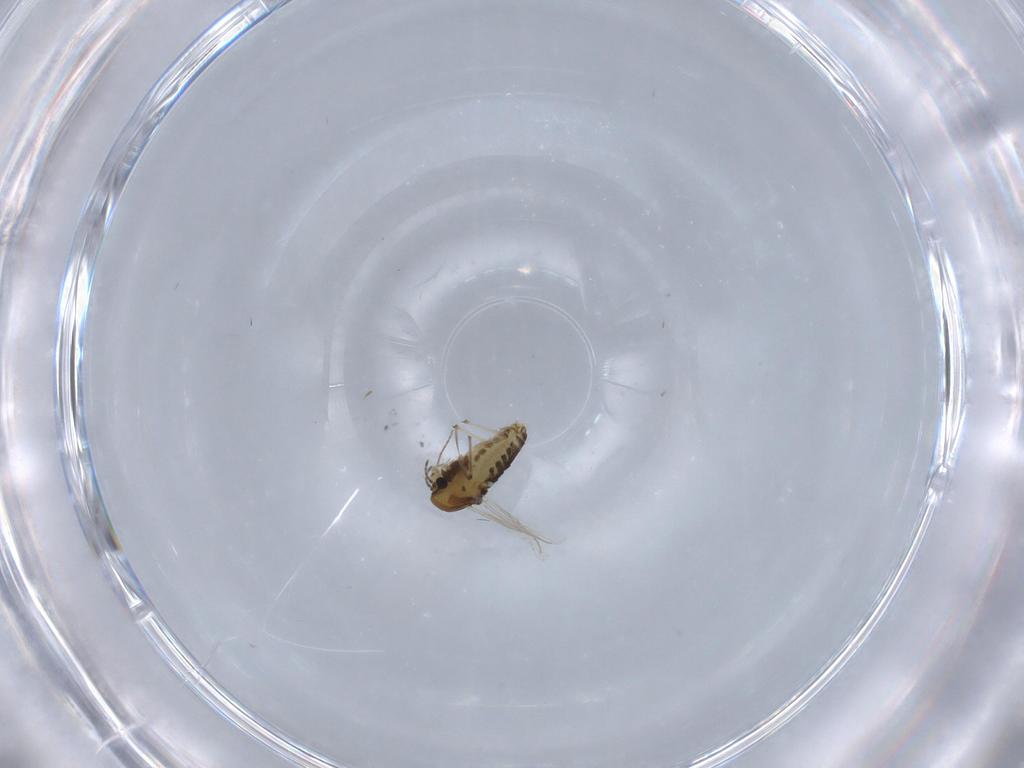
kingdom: Animalia
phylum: Arthropoda
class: Insecta
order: Diptera
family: Chironomidae
